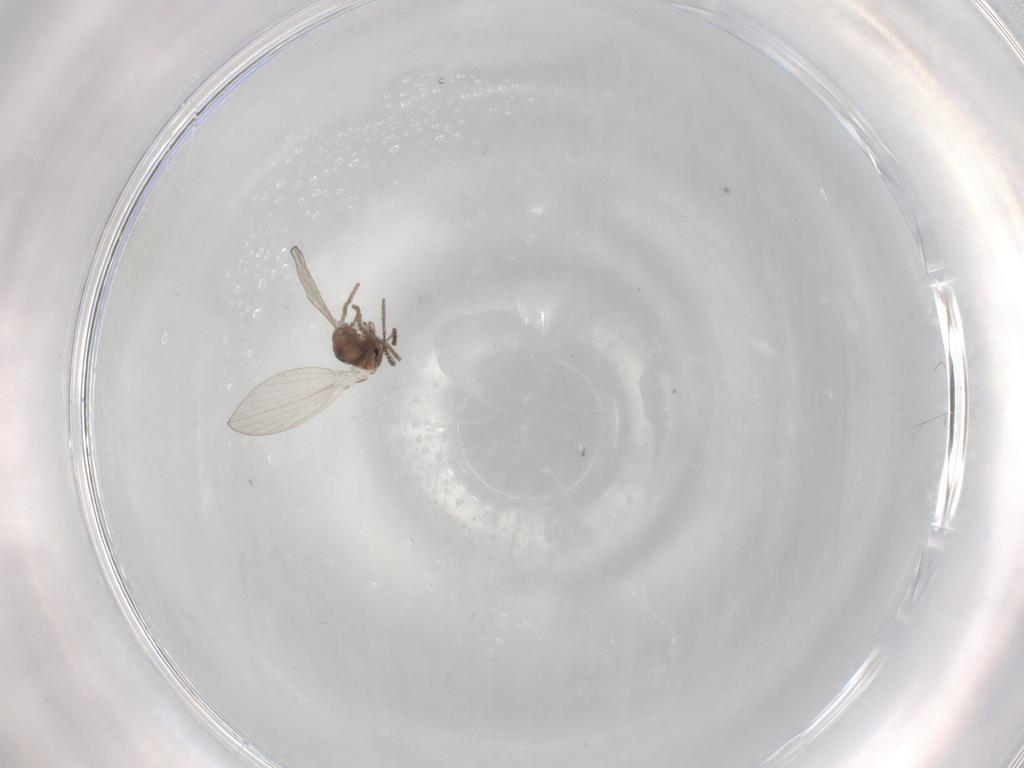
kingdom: Animalia
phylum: Arthropoda
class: Insecta
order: Diptera
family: Psychodidae
